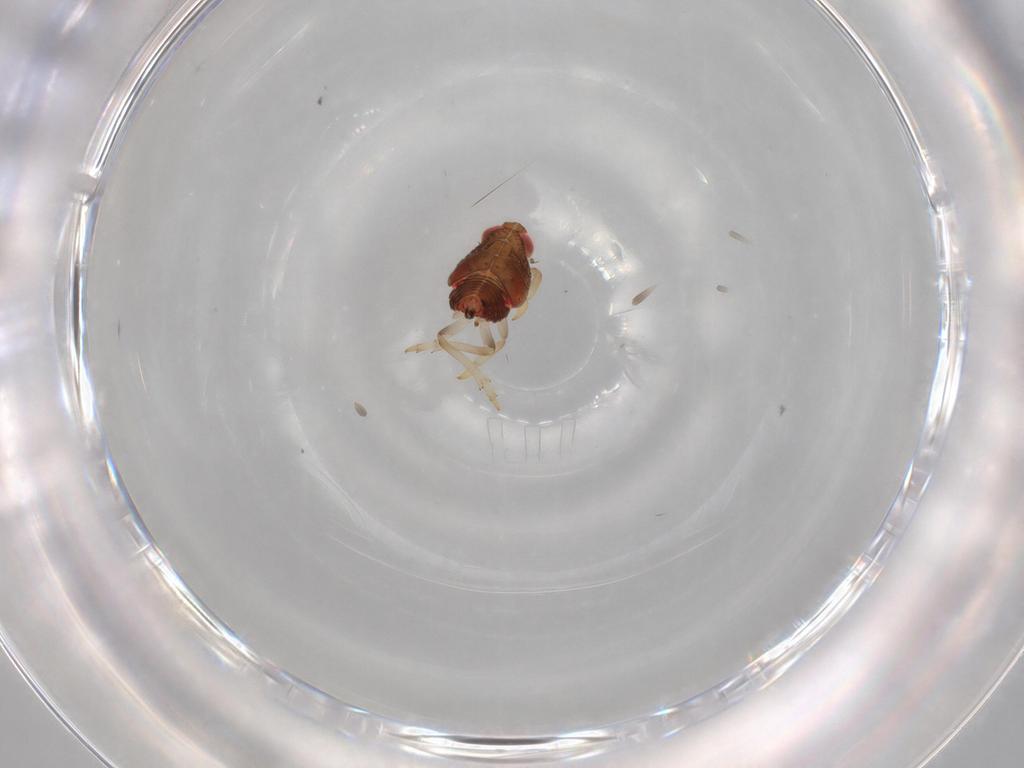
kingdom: Animalia
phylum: Arthropoda
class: Insecta
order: Hemiptera
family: Issidae
